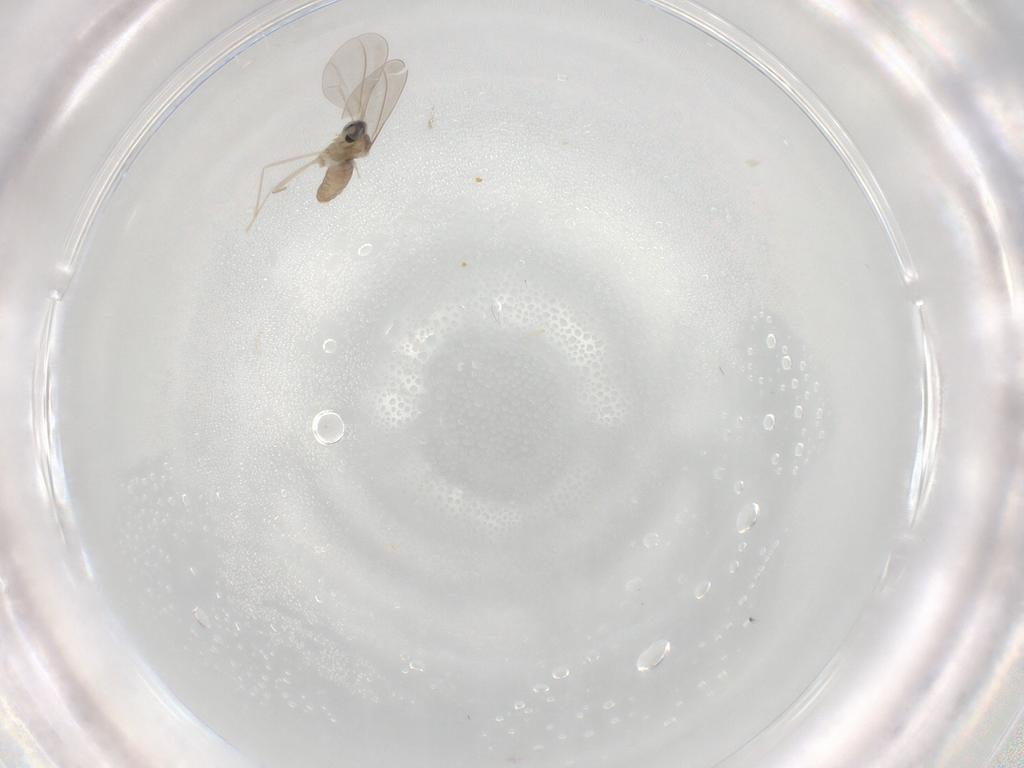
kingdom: Animalia
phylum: Arthropoda
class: Insecta
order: Diptera
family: Cecidomyiidae
